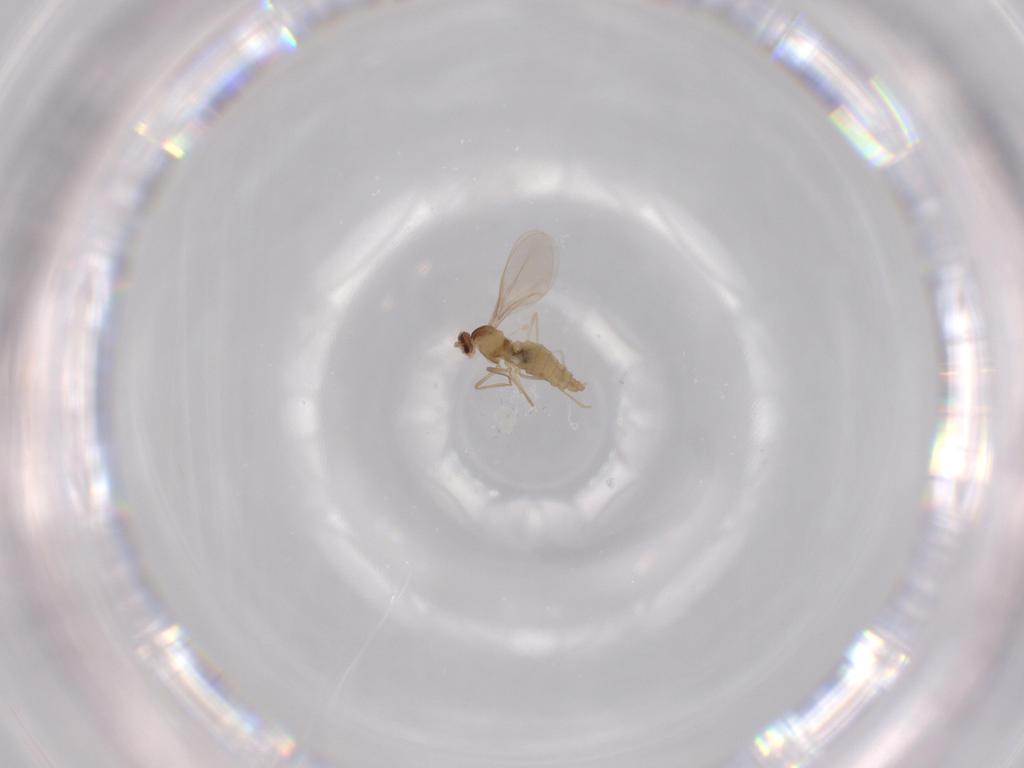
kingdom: Animalia
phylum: Arthropoda
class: Insecta
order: Diptera
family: Cecidomyiidae
